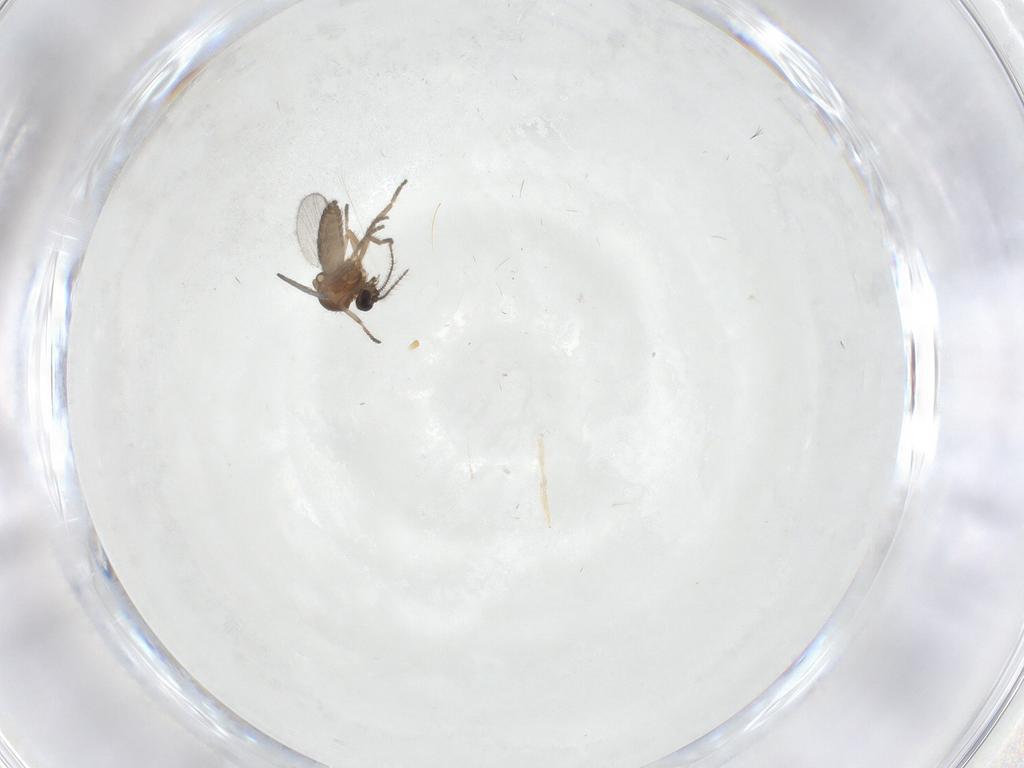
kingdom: Animalia
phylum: Arthropoda
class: Insecta
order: Diptera
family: Ceratopogonidae
